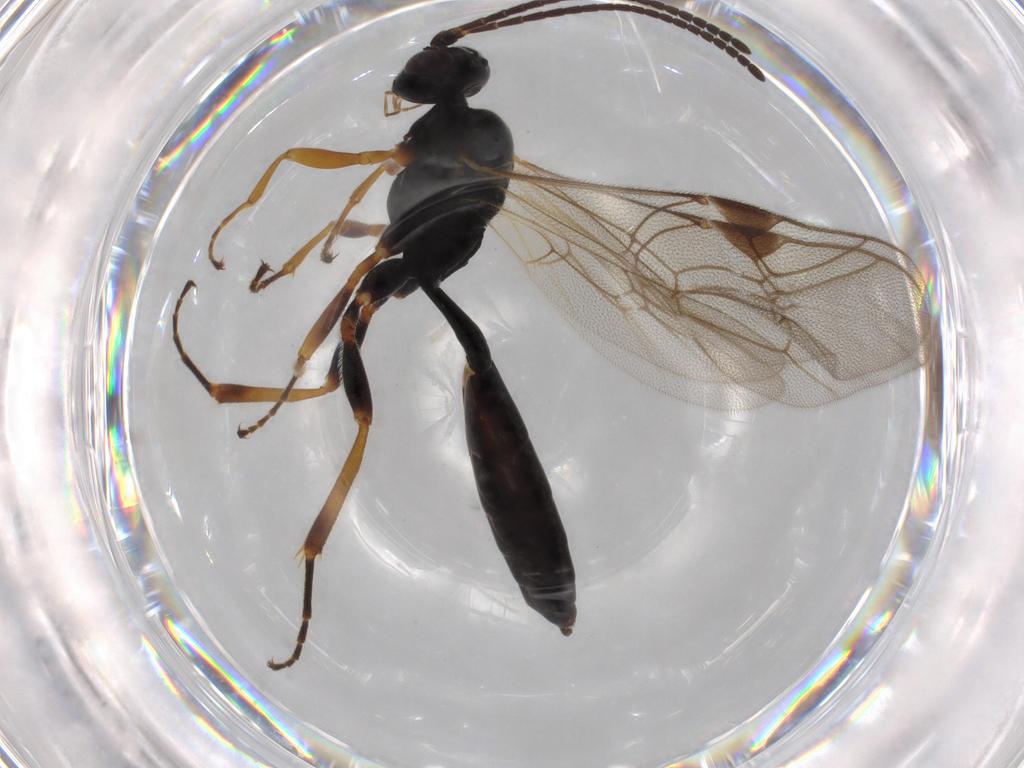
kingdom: Animalia
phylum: Arthropoda
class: Insecta
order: Hymenoptera
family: Ichneumonidae
